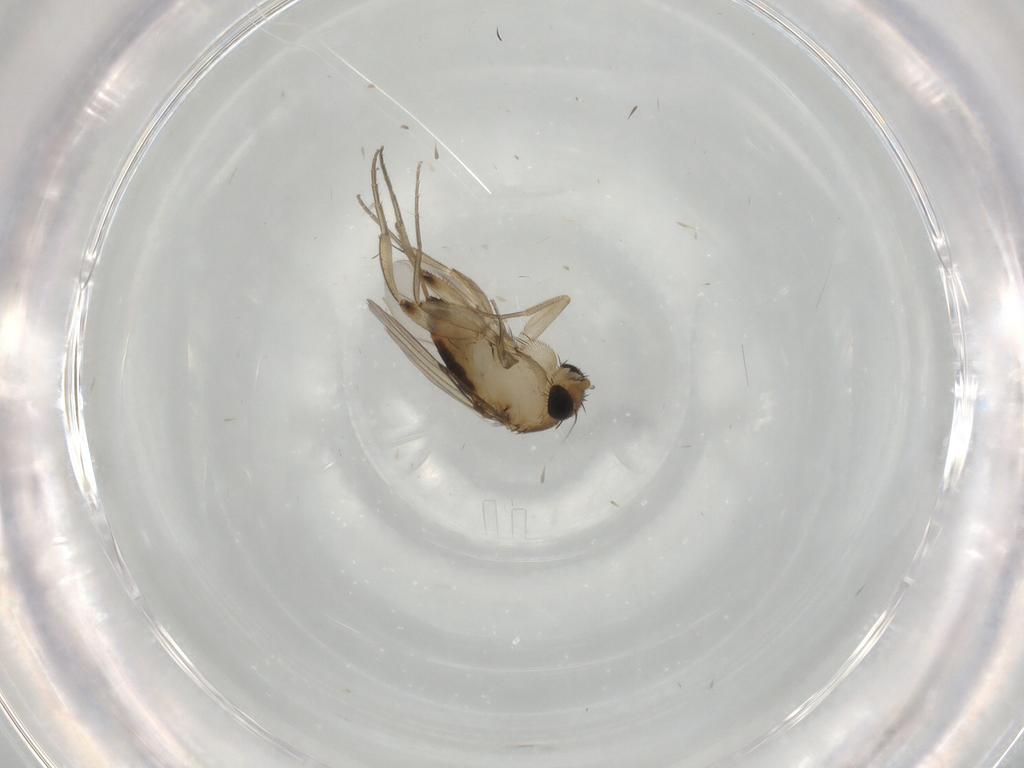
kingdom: Animalia
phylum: Arthropoda
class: Insecta
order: Diptera
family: Phoridae
